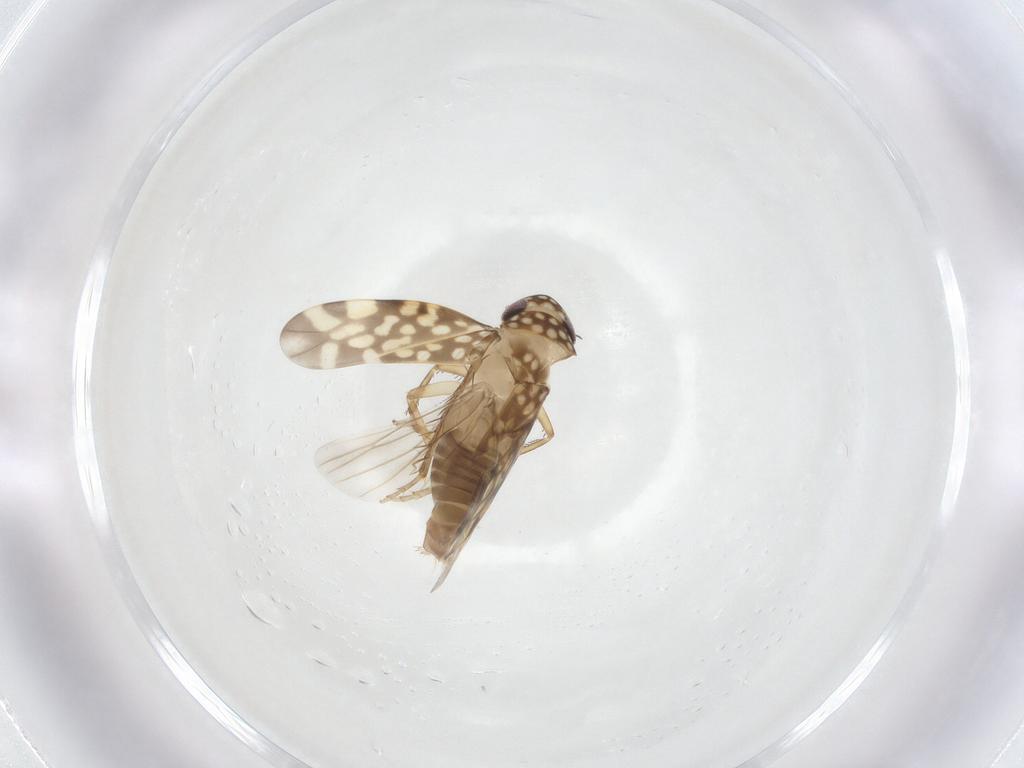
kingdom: Animalia
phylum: Arthropoda
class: Insecta
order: Hemiptera
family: Cicadellidae
